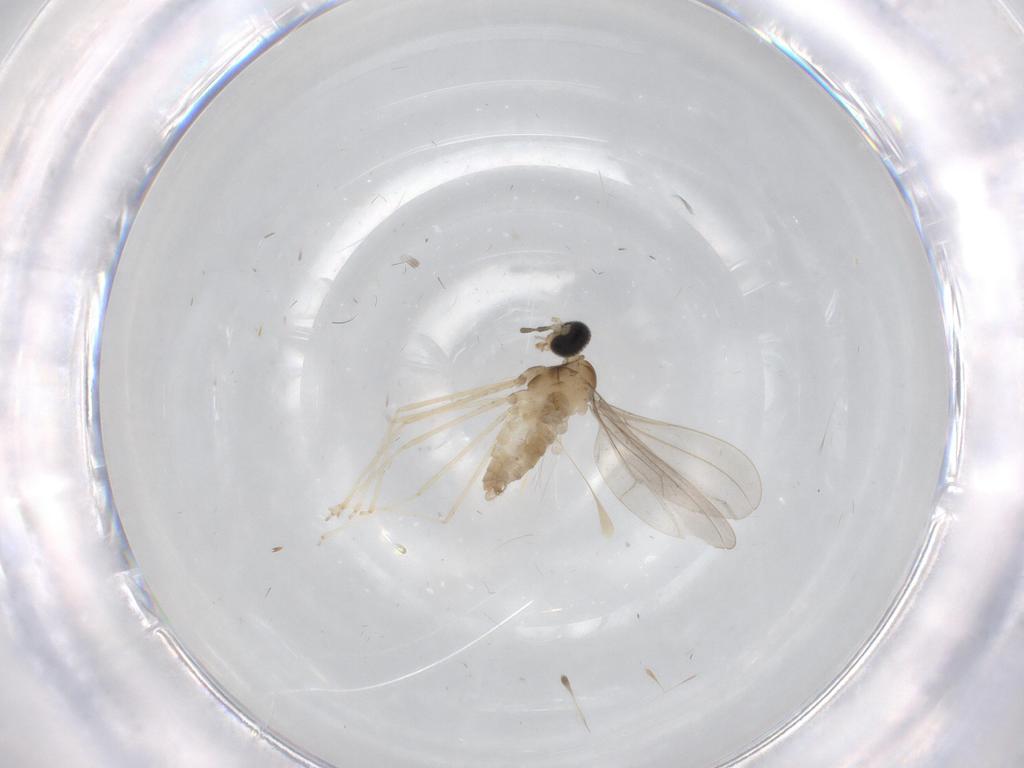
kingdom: Animalia
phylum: Arthropoda
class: Insecta
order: Diptera
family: Cecidomyiidae
